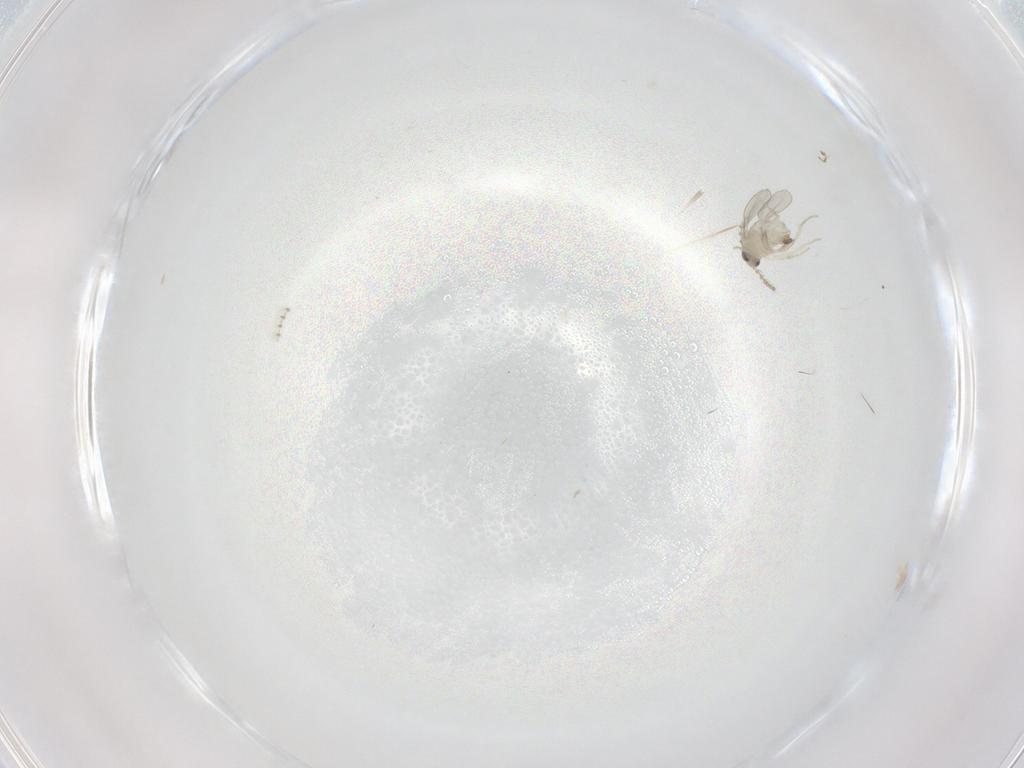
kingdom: Animalia
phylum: Arthropoda
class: Insecta
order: Diptera
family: Cecidomyiidae
